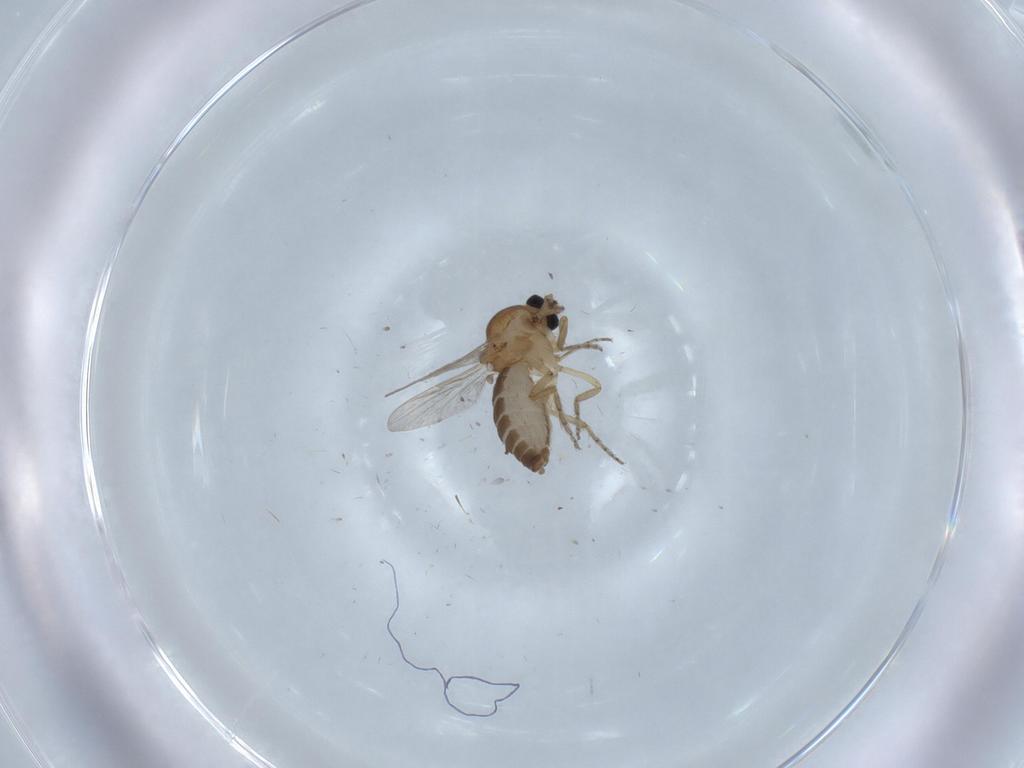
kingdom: Animalia
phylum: Arthropoda
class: Insecta
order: Diptera
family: Ceratopogonidae
